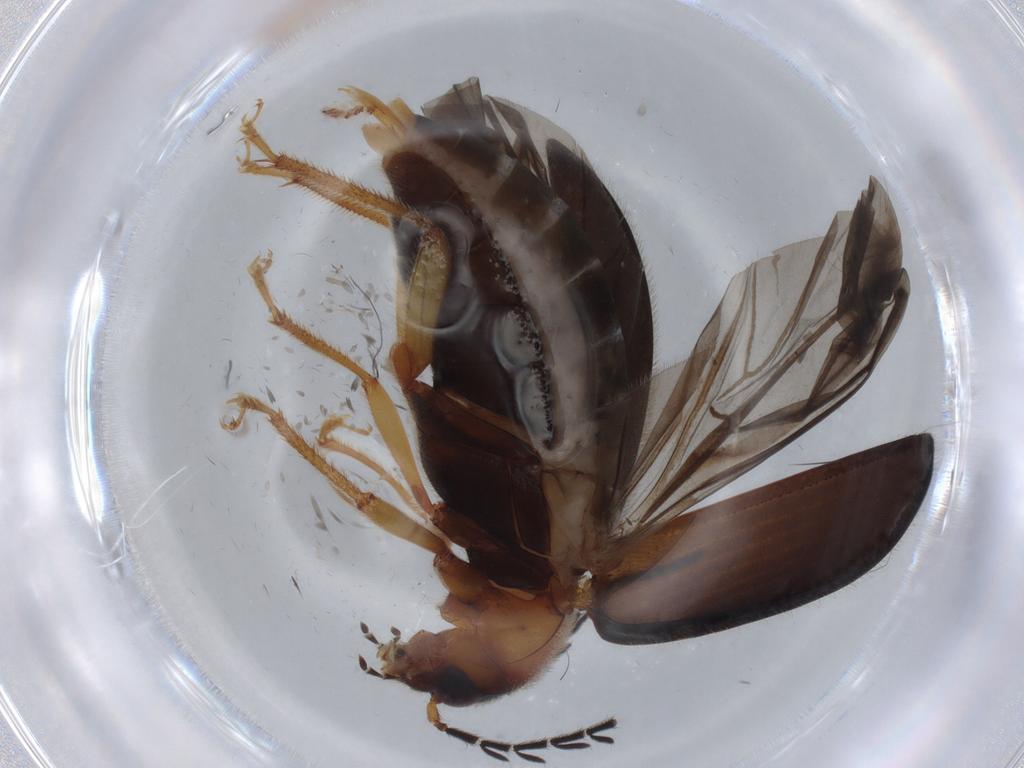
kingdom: Animalia
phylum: Arthropoda
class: Insecta
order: Coleoptera
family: Ptilodactylidae
